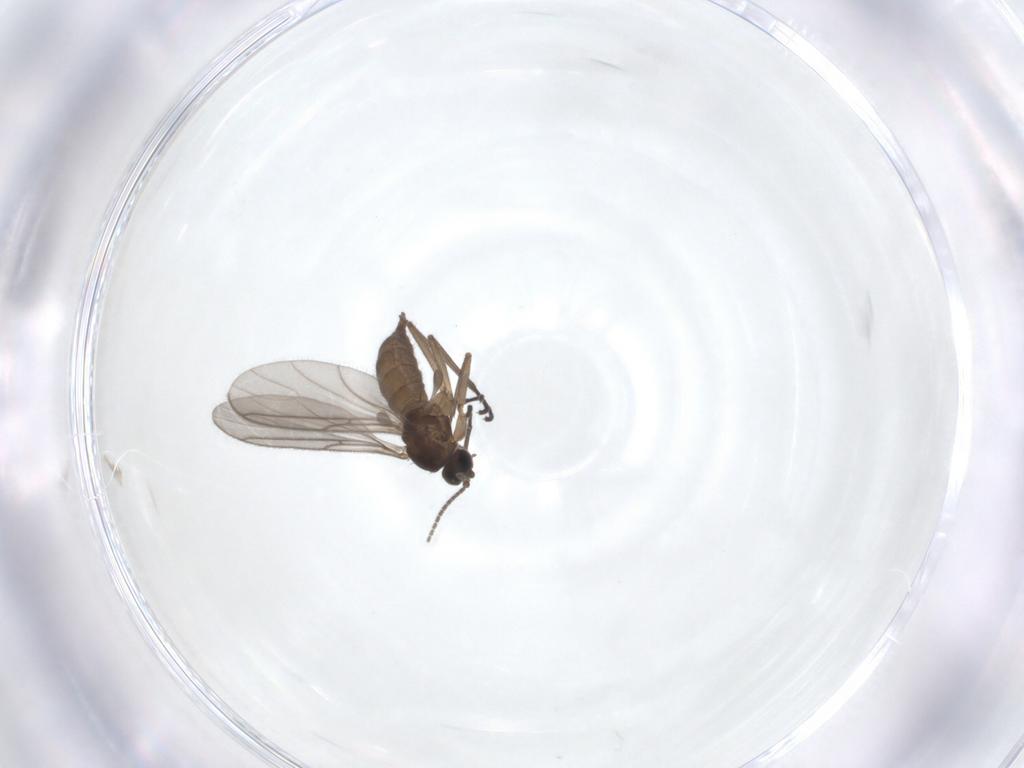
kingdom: Animalia
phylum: Arthropoda
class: Insecta
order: Diptera
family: Sciaridae
